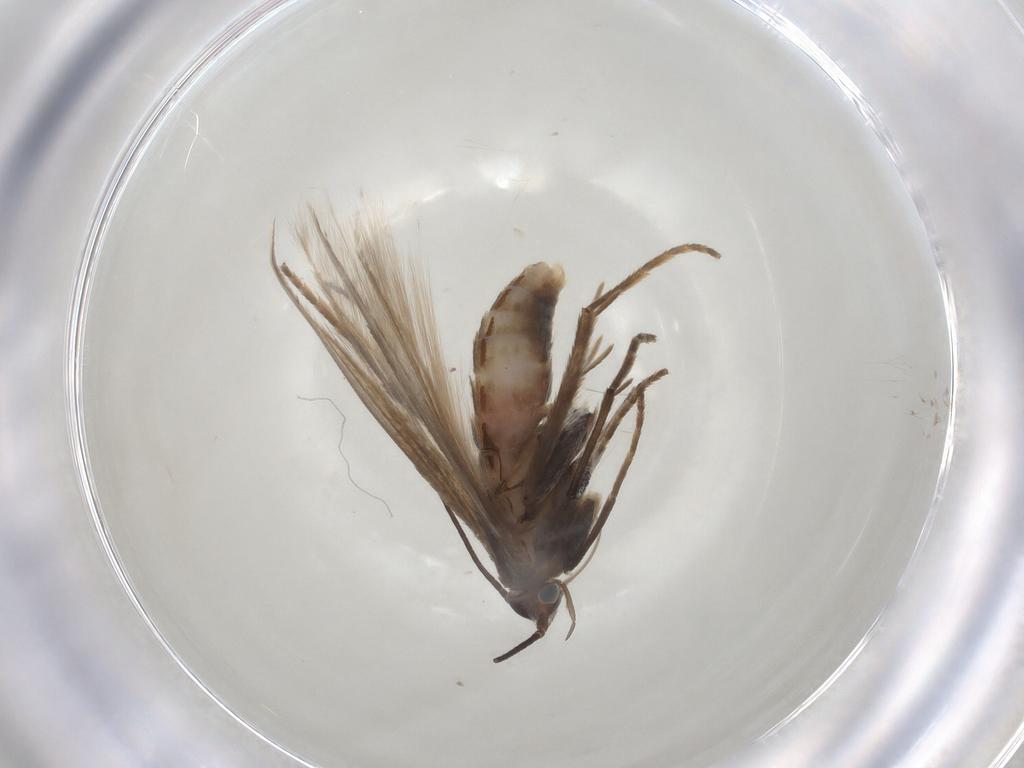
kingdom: Animalia
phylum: Arthropoda
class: Insecta
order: Lepidoptera
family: Coleophoridae
